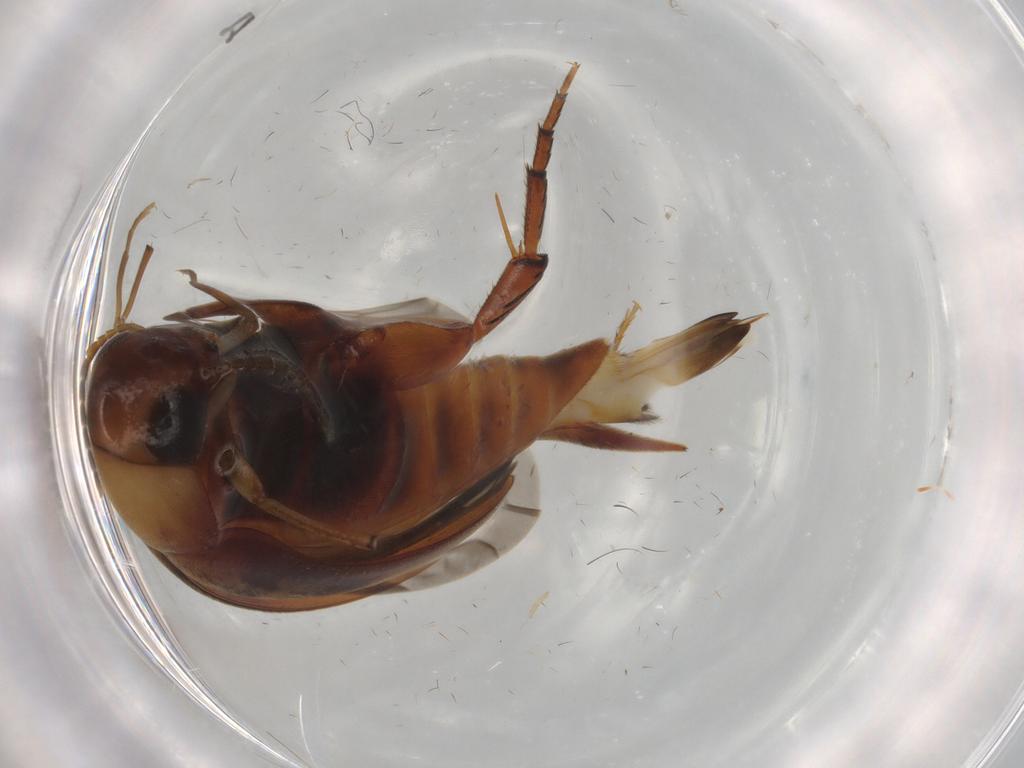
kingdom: Animalia
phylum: Arthropoda
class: Insecta
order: Coleoptera
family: Mordellidae
